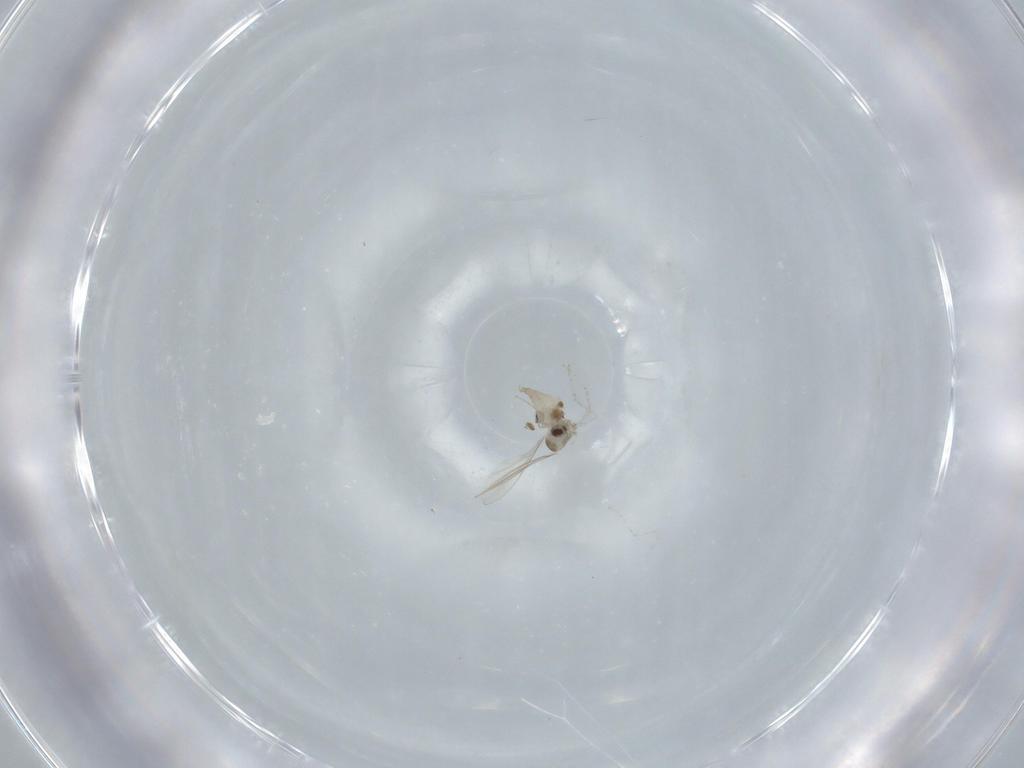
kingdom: Animalia
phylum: Arthropoda
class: Insecta
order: Diptera
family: Cecidomyiidae
